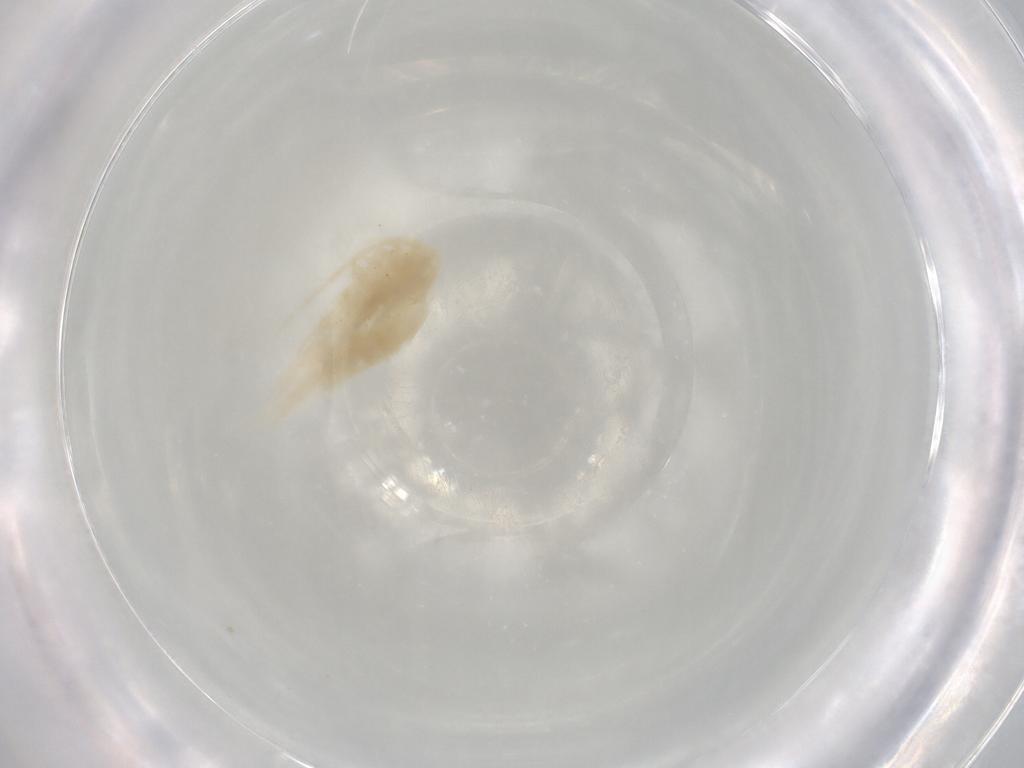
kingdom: Animalia
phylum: Arthropoda
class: Copepoda
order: Calanoida
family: Diaptomidae
